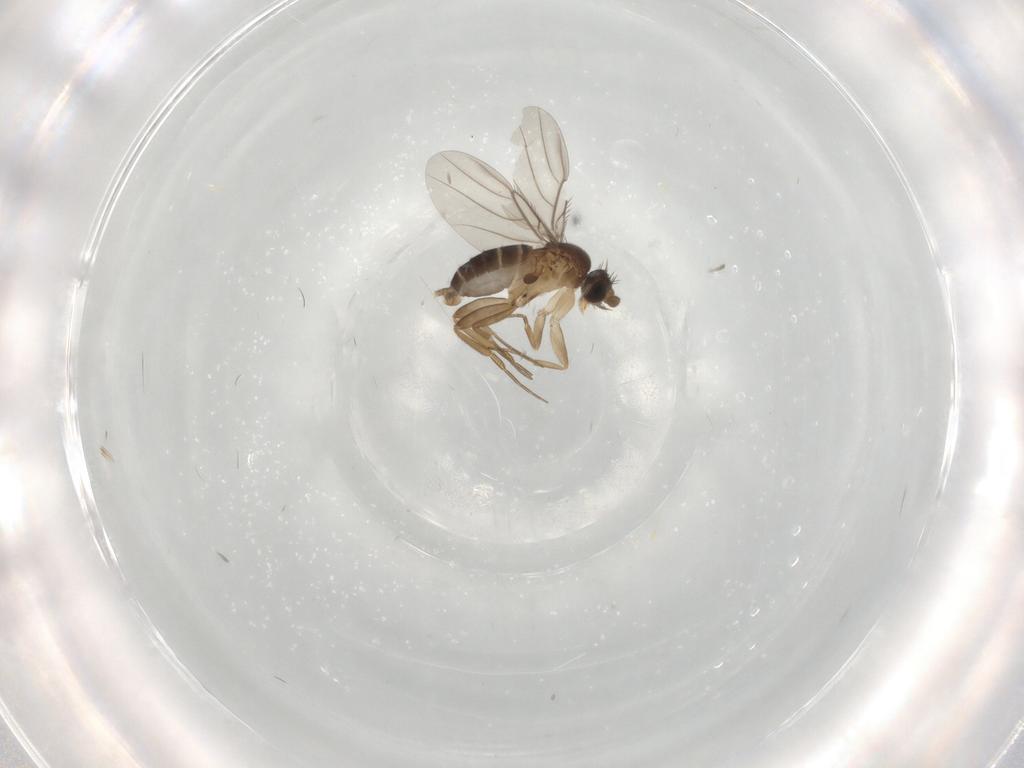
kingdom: Animalia
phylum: Arthropoda
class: Insecta
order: Diptera
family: Phoridae
